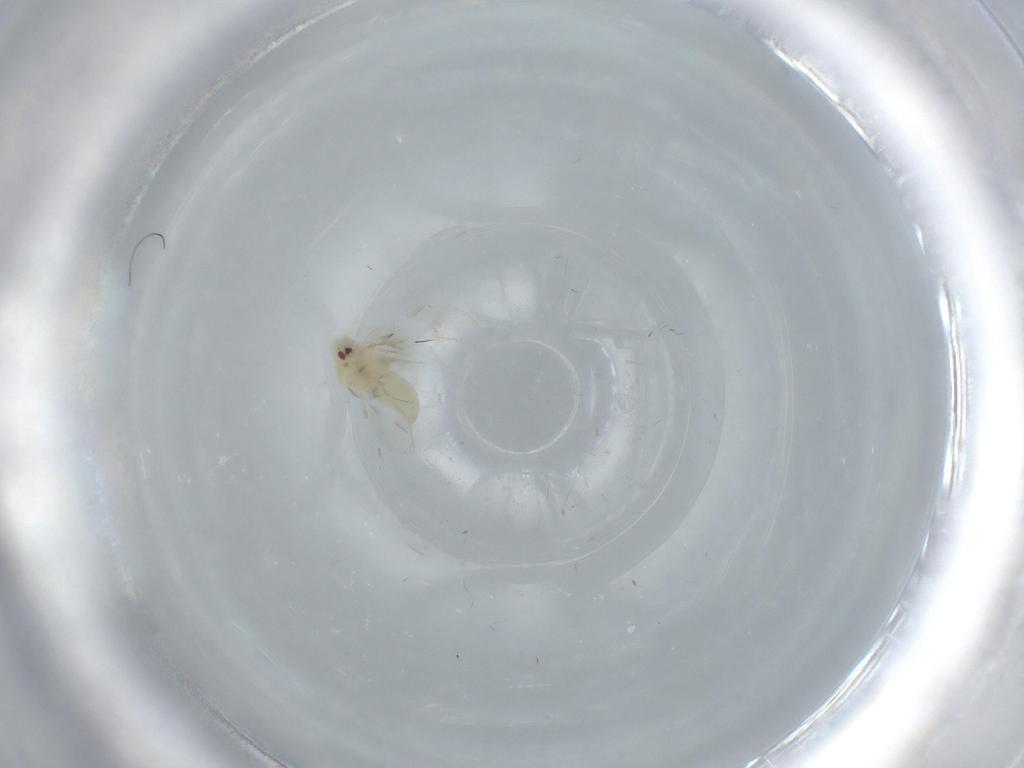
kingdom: Animalia
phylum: Arthropoda
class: Insecta
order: Hemiptera
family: Aleyrodidae
